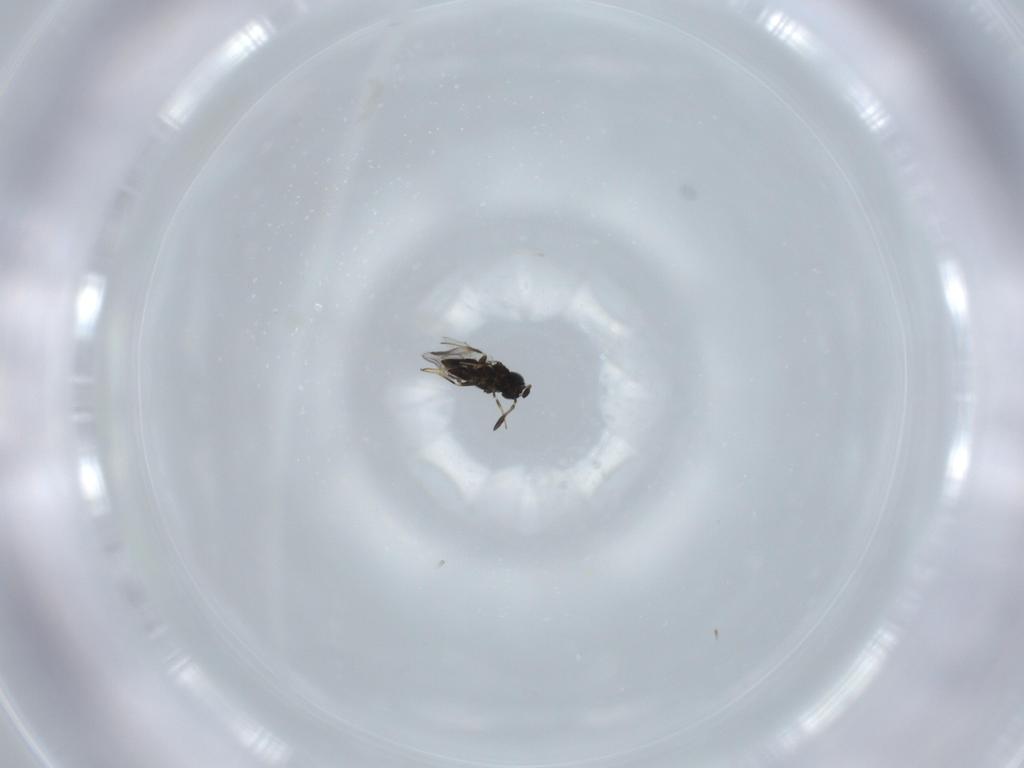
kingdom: Animalia
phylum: Arthropoda
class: Insecta
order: Hymenoptera
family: Encyrtidae
